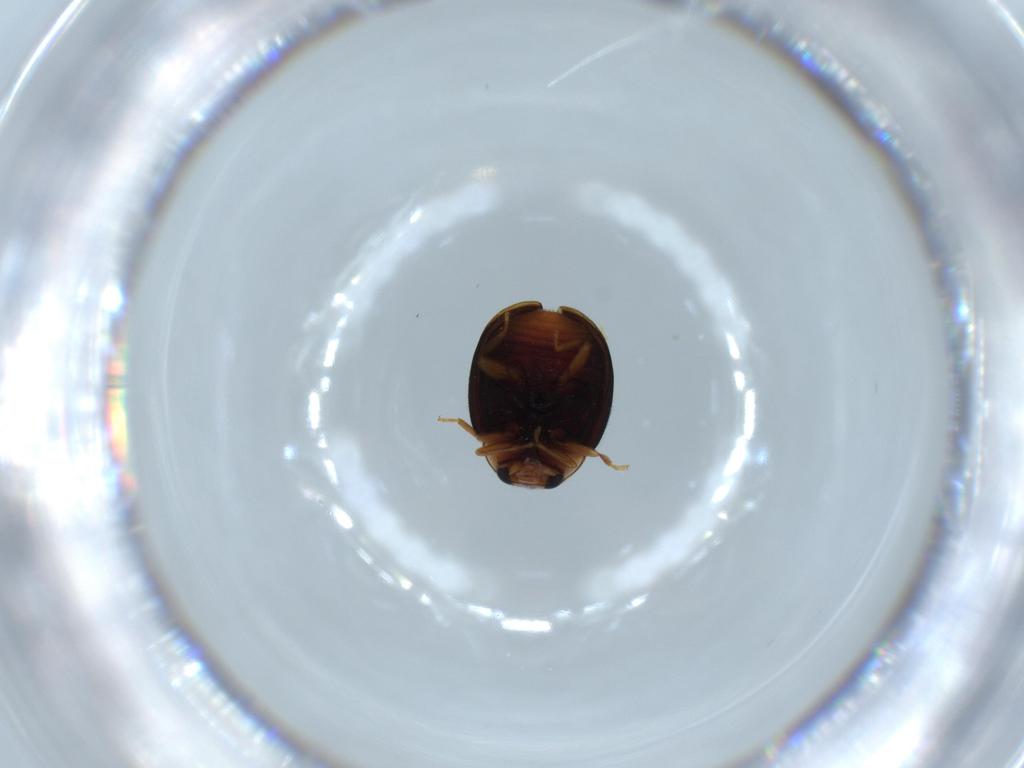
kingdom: Animalia
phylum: Arthropoda
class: Insecta
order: Coleoptera
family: Coccinellidae
